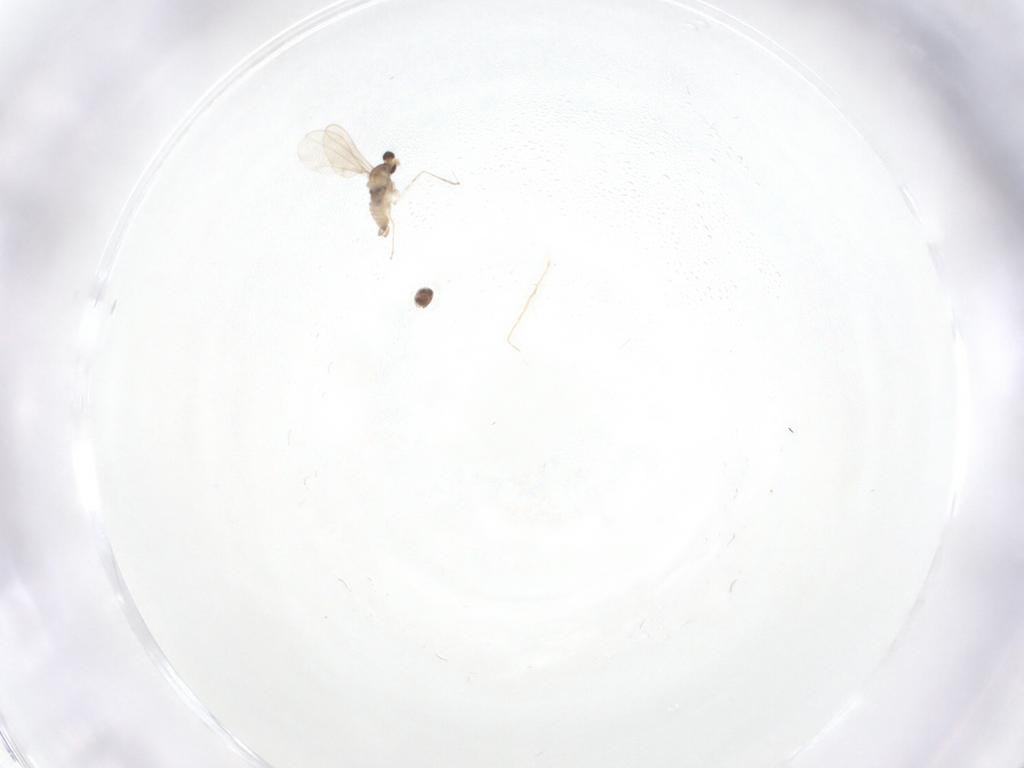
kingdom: Animalia
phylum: Arthropoda
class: Insecta
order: Diptera
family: Cecidomyiidae
